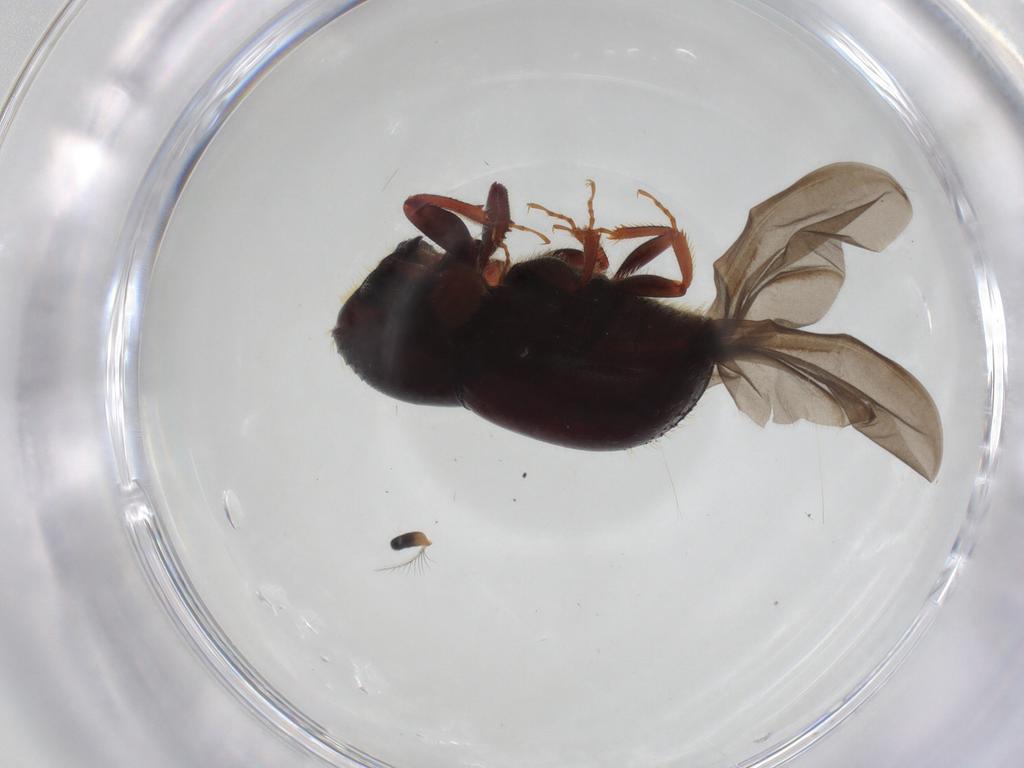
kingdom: Animalia
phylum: Arthropoda
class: Insecta
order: Coleoptera
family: Curculionidae
